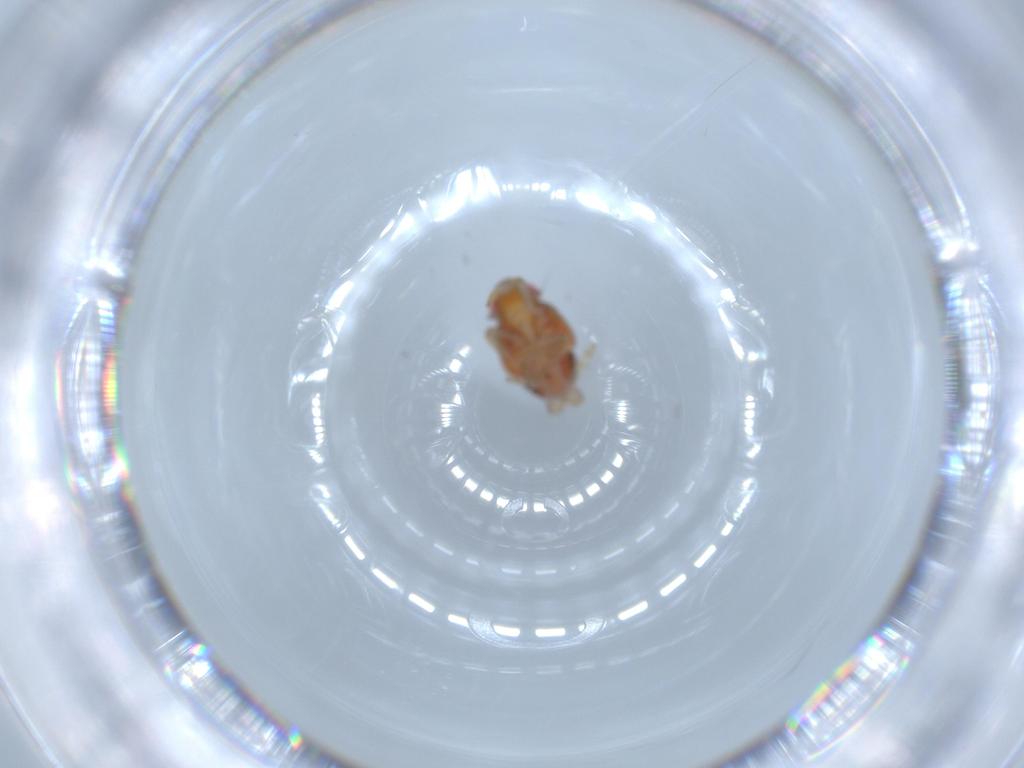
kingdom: Animalia
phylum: Arthropoda
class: Insecta
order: Hemiptera
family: Issidae
